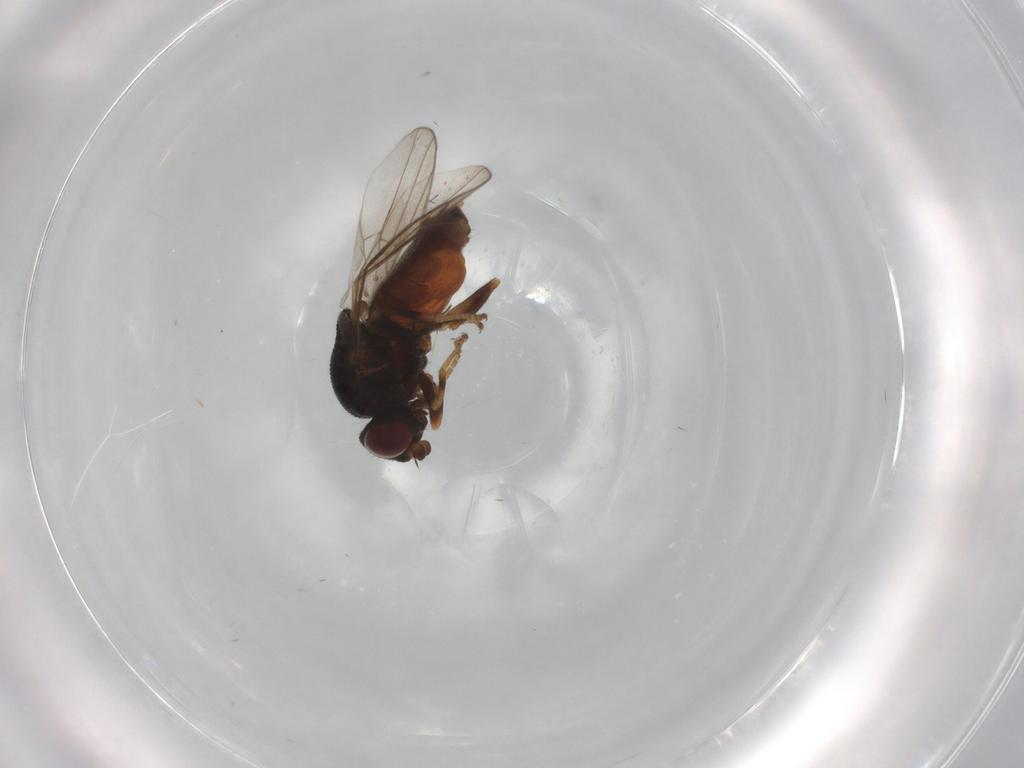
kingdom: Animalia
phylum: Arthropoda
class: Insecta
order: Diptera
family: Chloropidae
